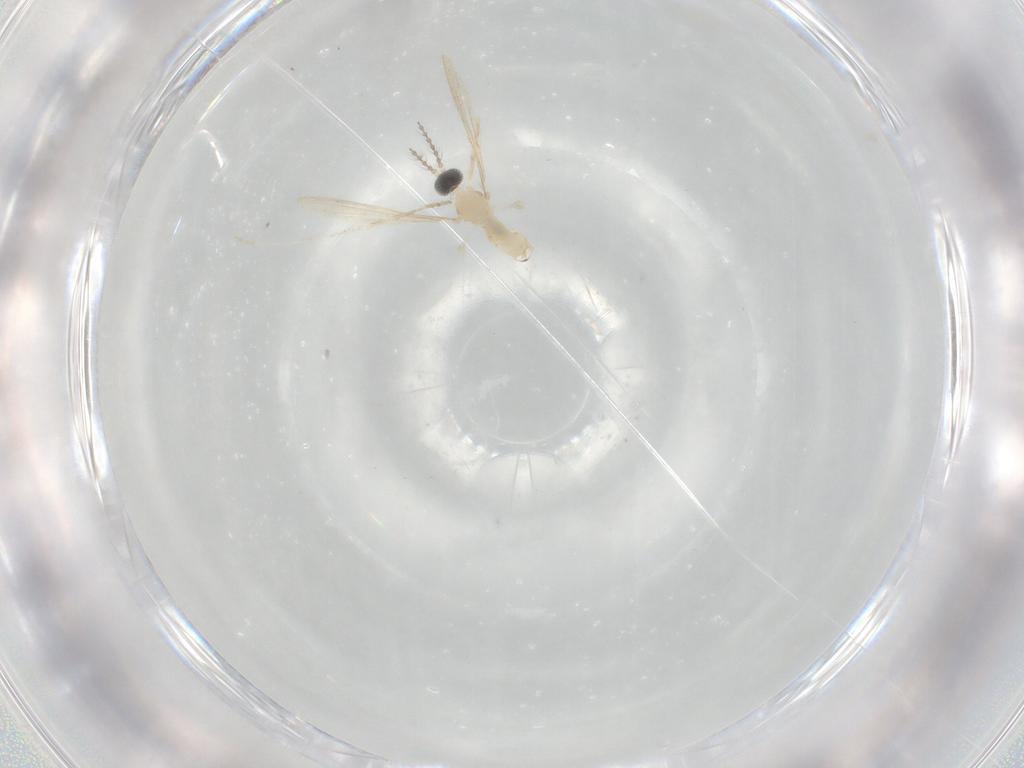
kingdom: Animalia
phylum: Arthropoda
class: Insecta
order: Diptera
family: Cecidomyiidae
